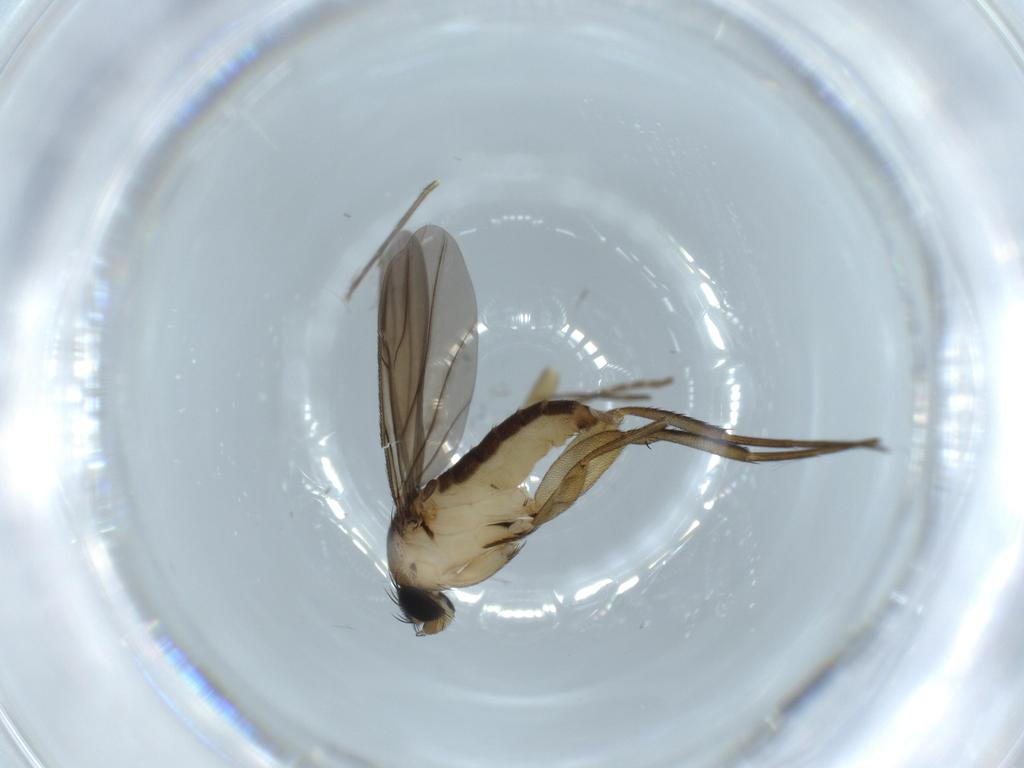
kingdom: Animalia
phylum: Arthropoda
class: Insecta
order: Diptera
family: Phoridae
